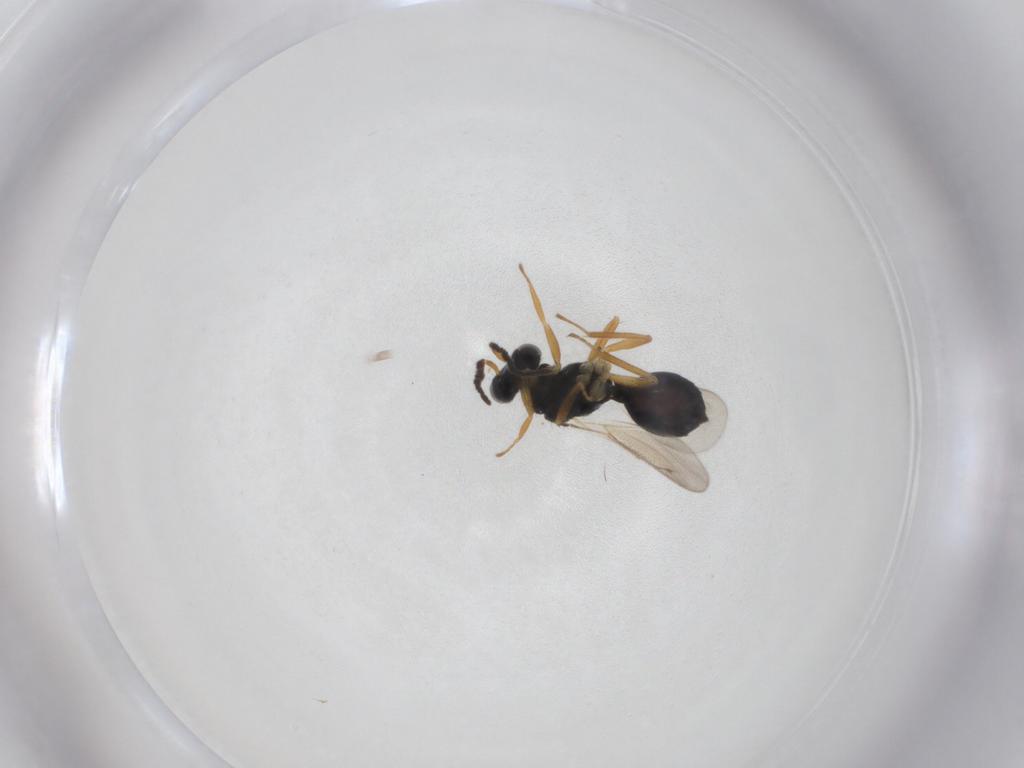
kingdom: Animalia
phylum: Arthropoda
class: Insecta
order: Hymenoptera
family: Eulophidae
